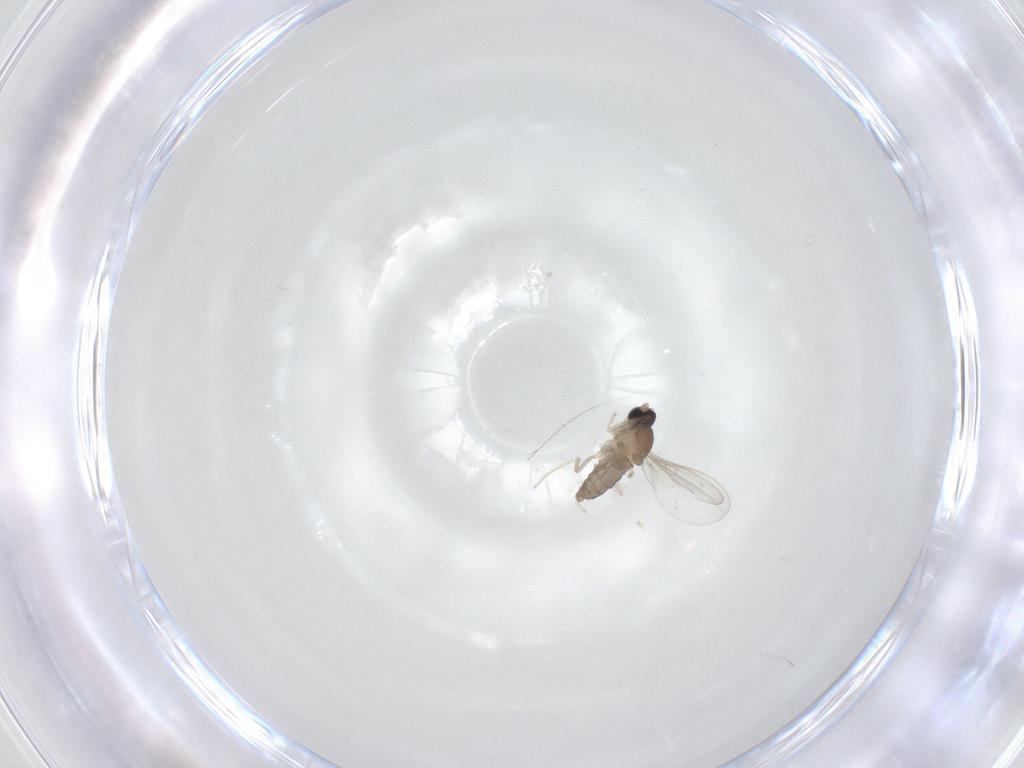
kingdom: Animalia
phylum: Arthropoda
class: Insecta
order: Diptera
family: Cecidomyiidae
